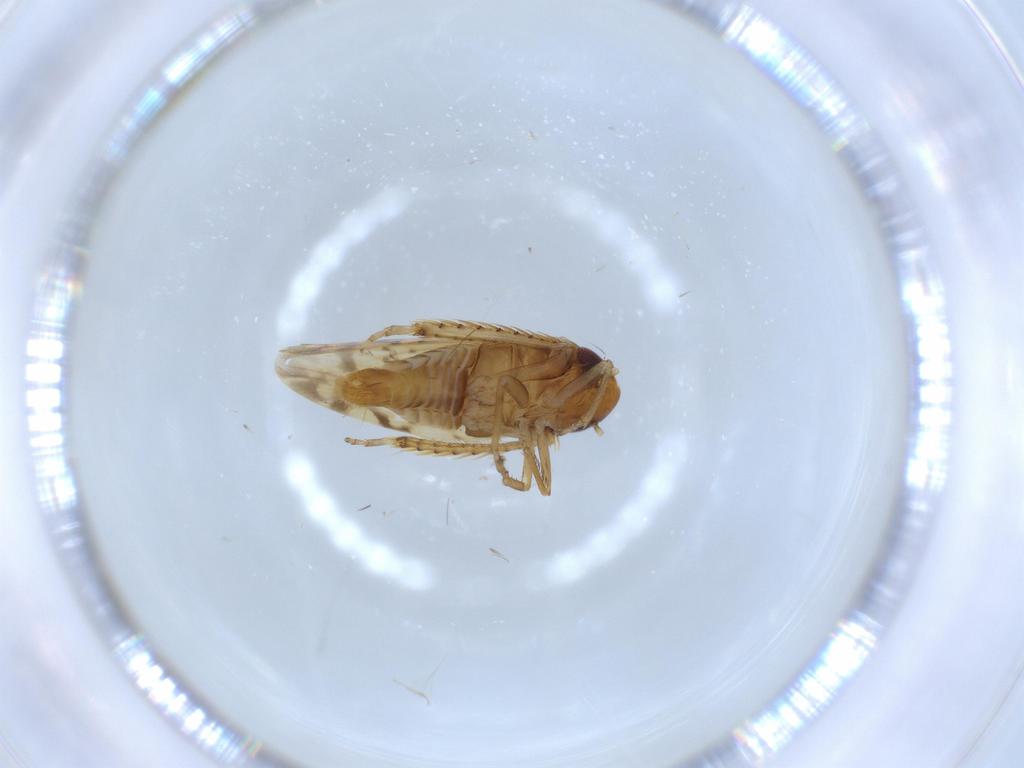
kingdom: Animalia
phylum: Arthropoda
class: Insecta
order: Hemiptera
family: Cicadellidae
